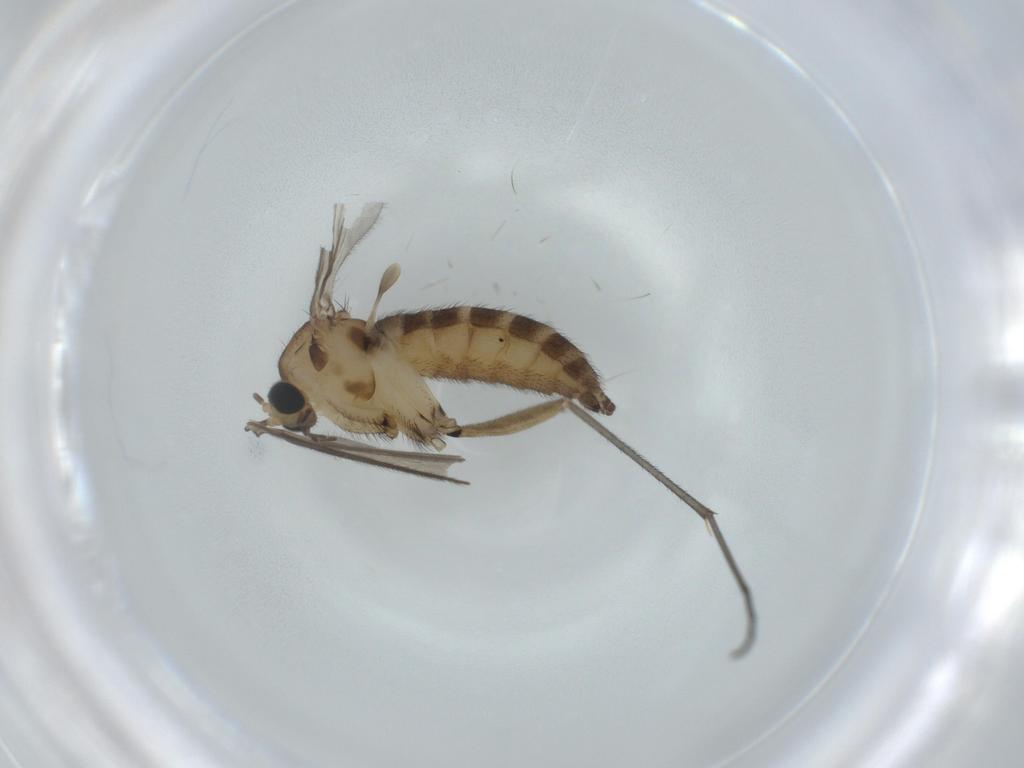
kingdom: Animalia
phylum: Arthropoda
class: Insecta
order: Diptera
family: Sciaridae
